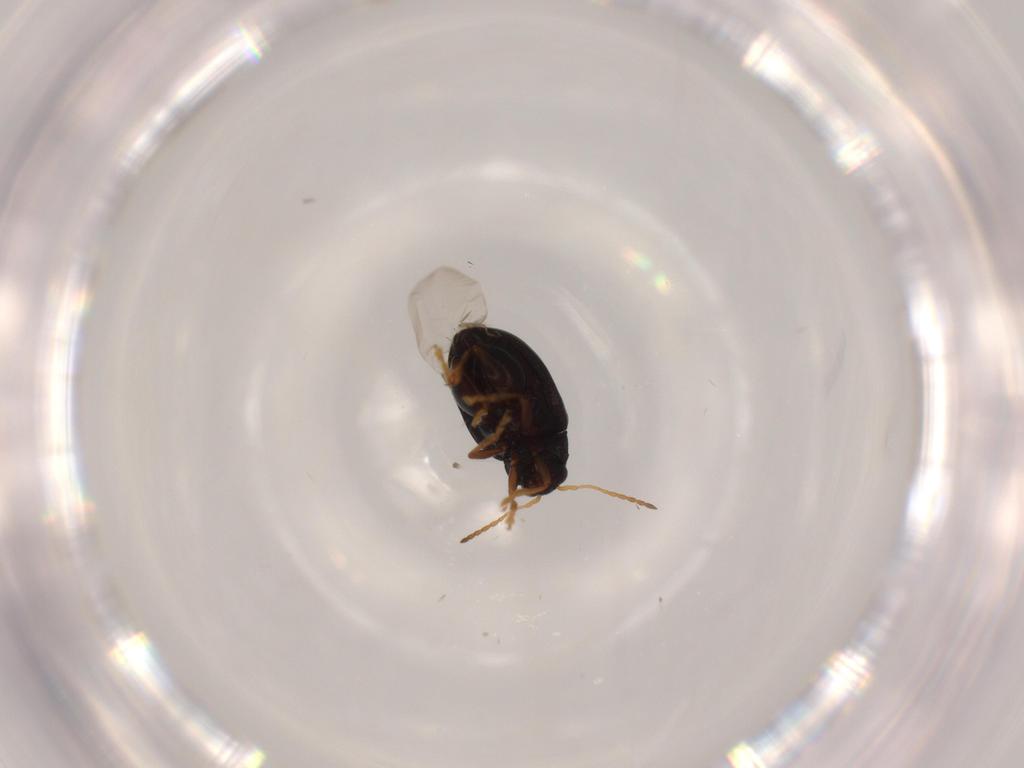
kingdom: Animalia
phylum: Arthropoda
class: Insecta
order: Coleoptera
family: Chrysomelidae
